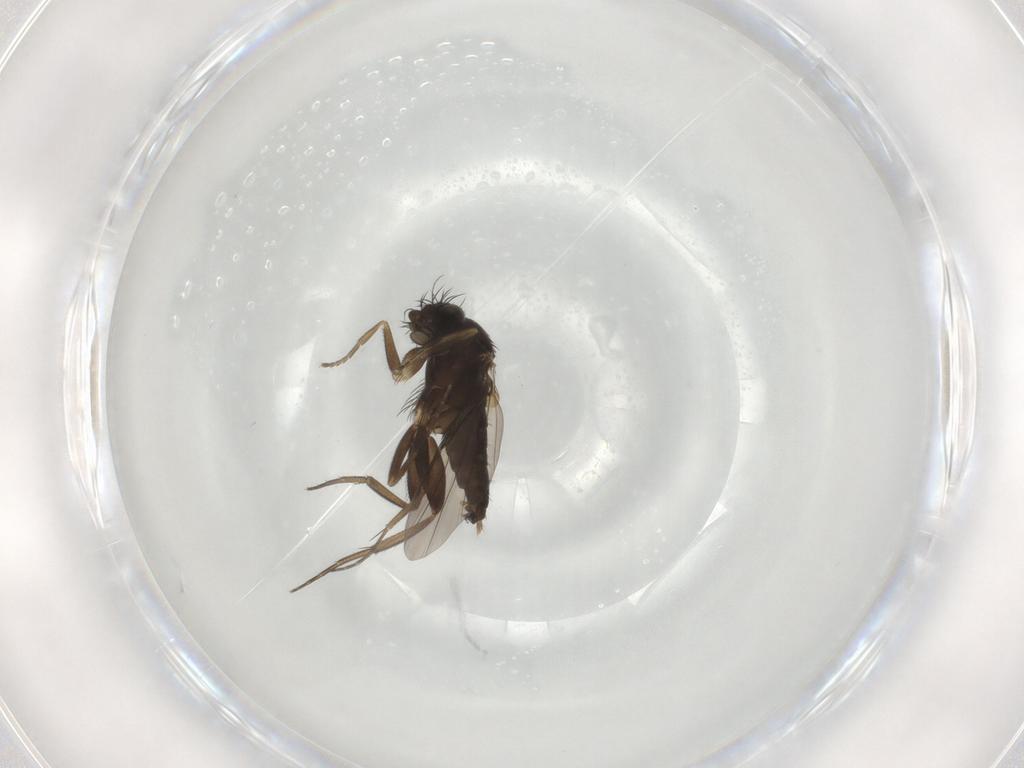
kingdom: Animalia
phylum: Arthropoda
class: Insecta
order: Diptera
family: Phoridae
